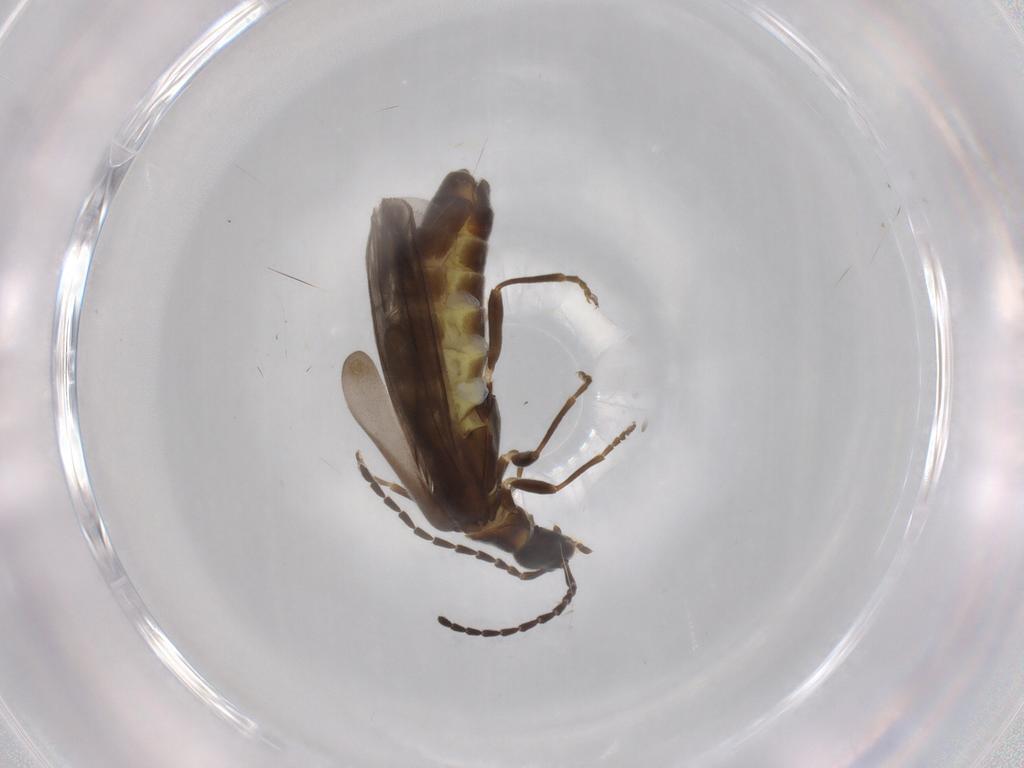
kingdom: Animalia
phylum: Arthropoda
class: Insecta
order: Coleoptera
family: Cantharidae
